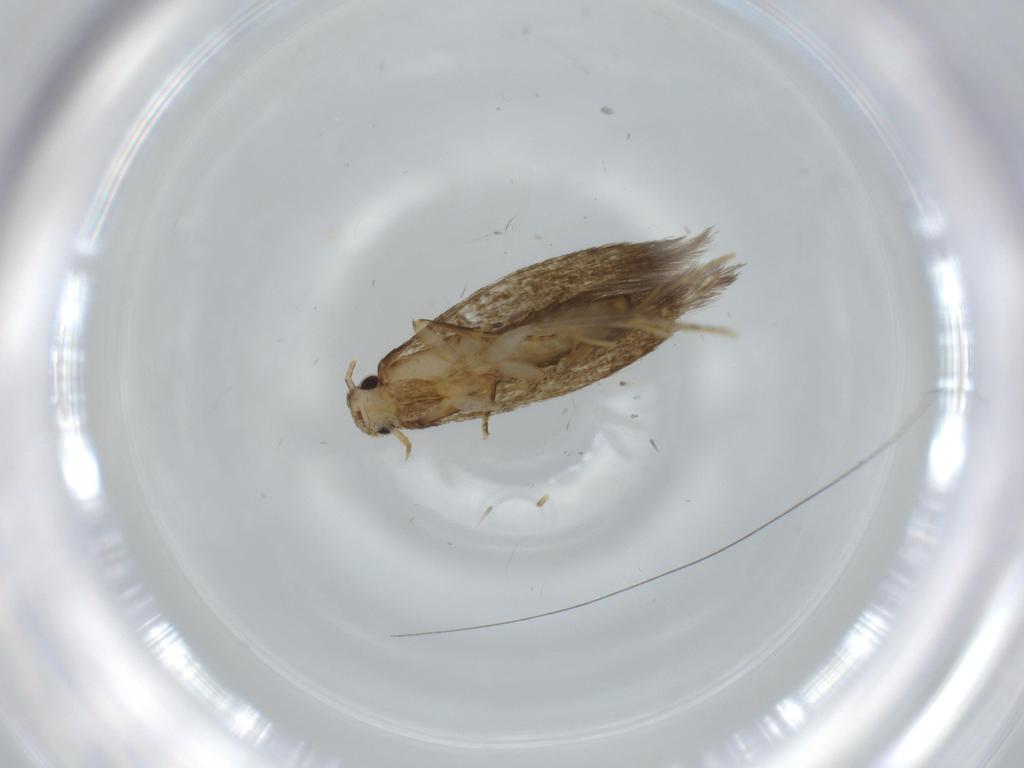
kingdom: Animalia
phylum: Arthropoda
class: Insecta
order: Lepidoptera
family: Tineidae
